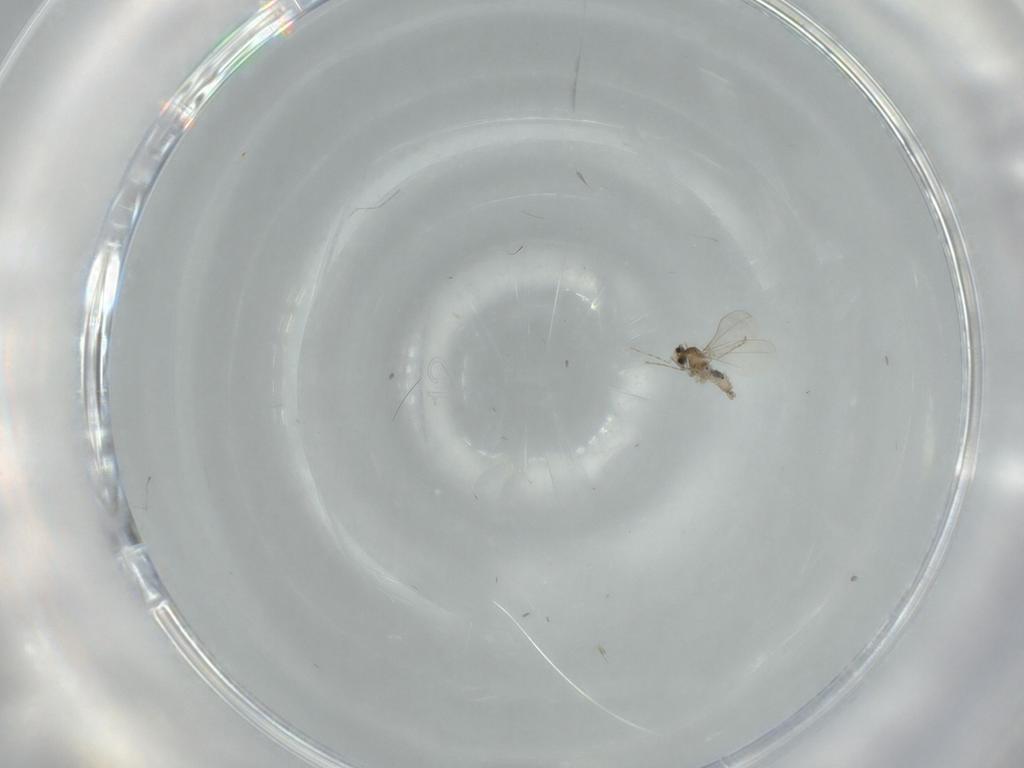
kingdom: Animalia
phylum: Arthropoda
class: Insecta
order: Diptera
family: Cecidomyiidae
